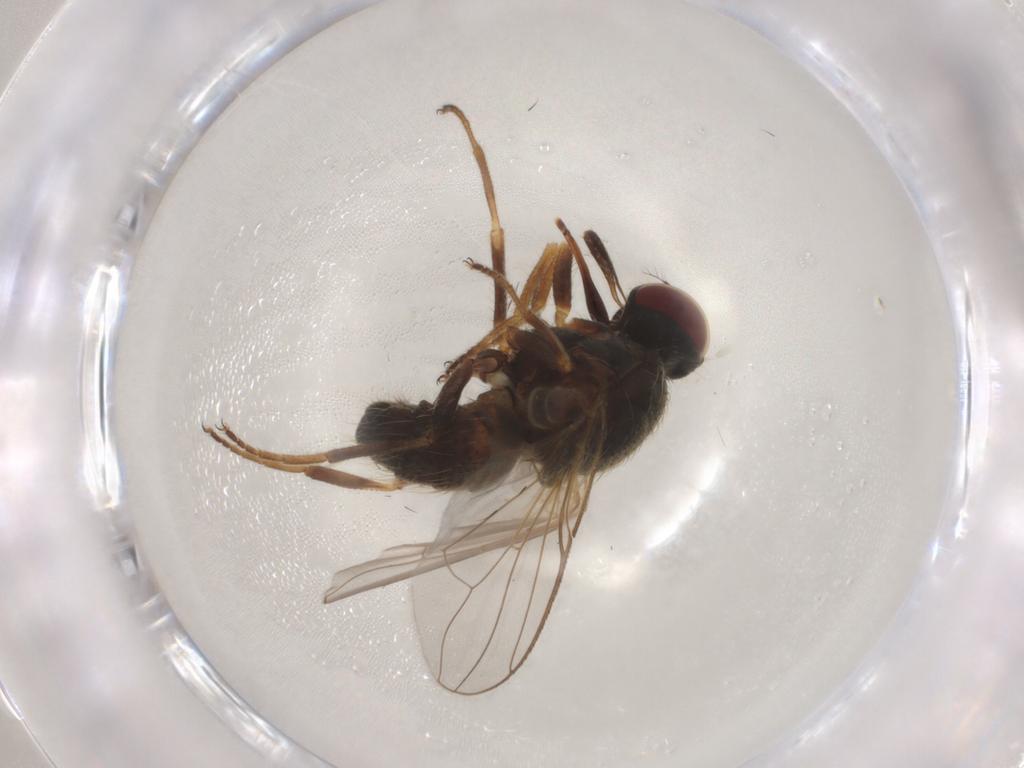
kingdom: Animalia
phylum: Arthropoda
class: Insecta
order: Diptera
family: Muscidae
